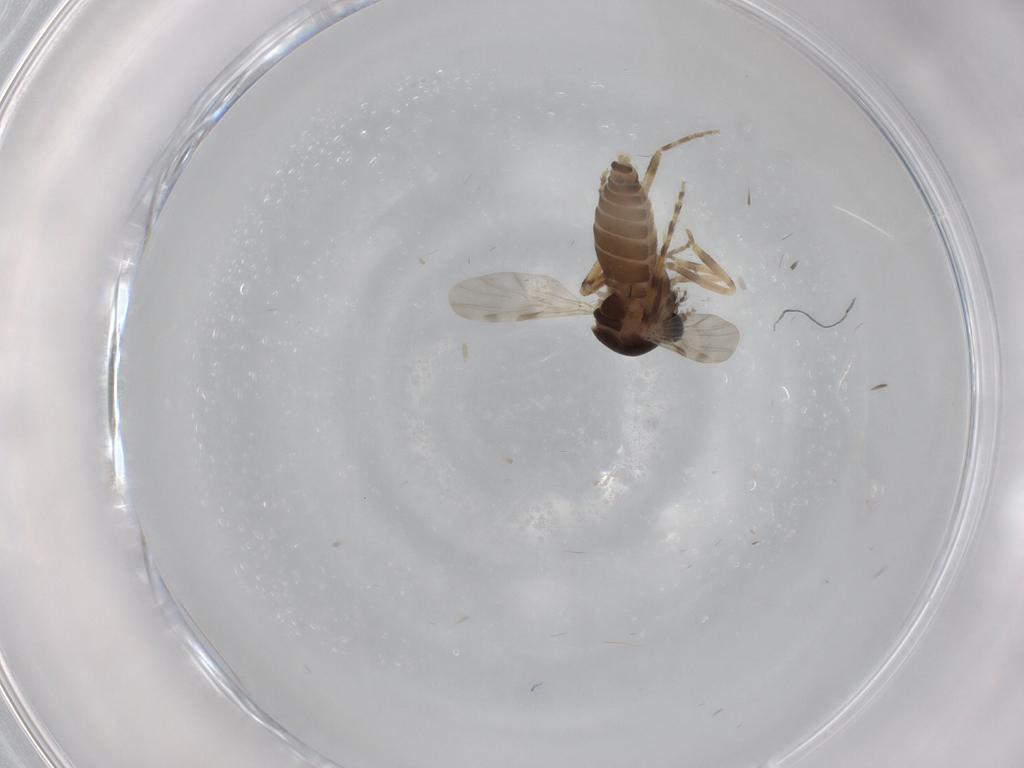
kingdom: Animalia
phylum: Arthropoda
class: Insecta
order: Diptera
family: Ceratopogonidae
